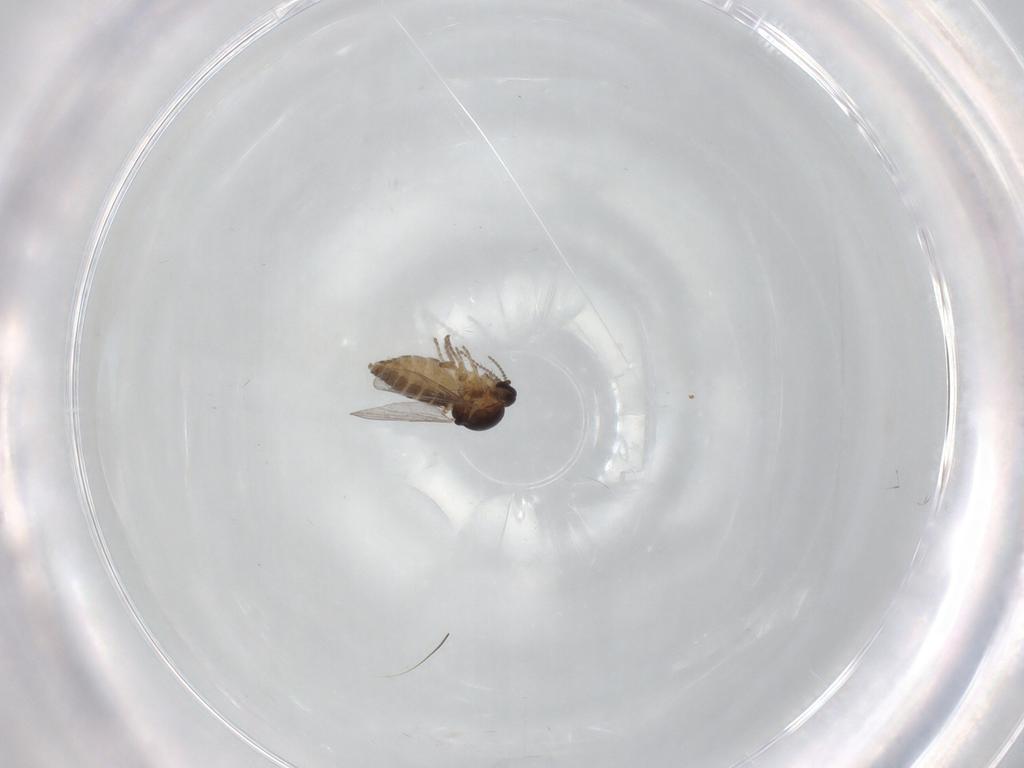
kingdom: Animalia
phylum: Arthropoda
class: Insecta
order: Diptera
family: Ceratopogonidae
